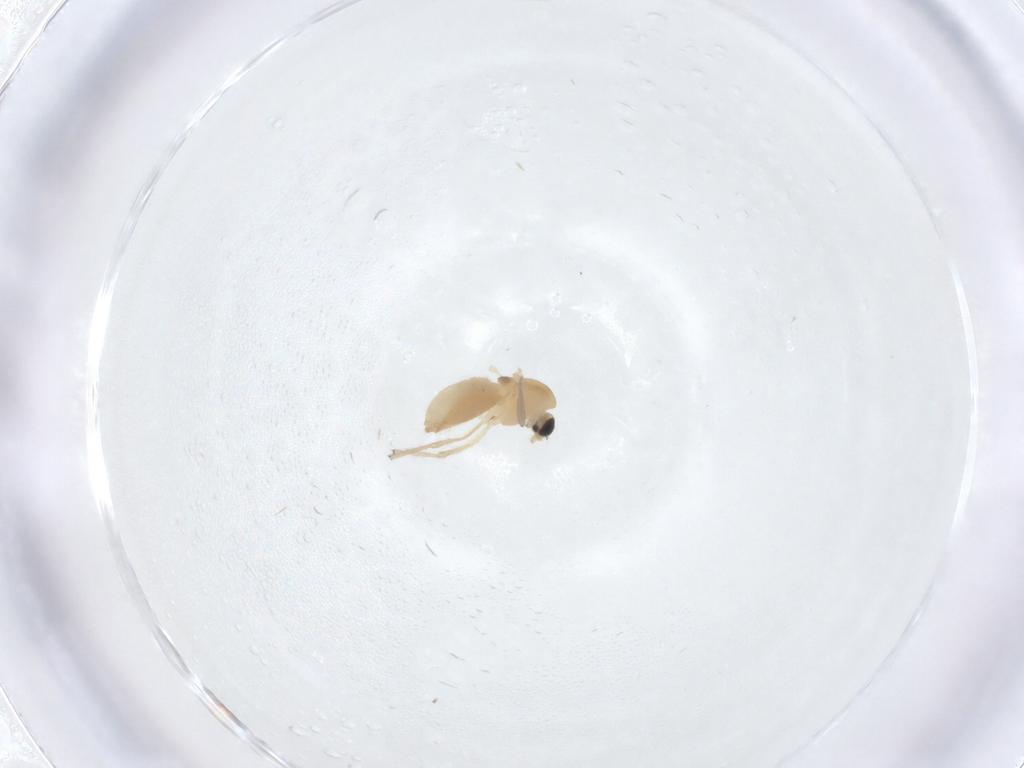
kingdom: Animalia
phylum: Arthropoda
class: Insecta
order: Diptera
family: Chironomidae
